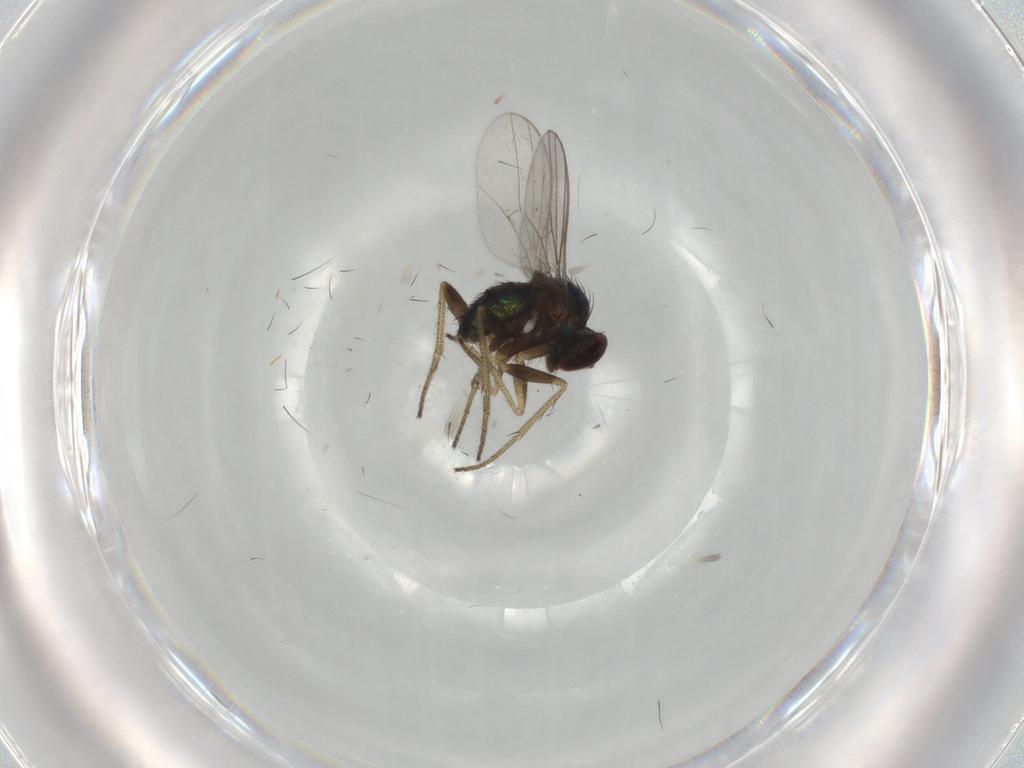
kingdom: Animalia
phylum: Arthropoda
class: Insecta
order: Diptera
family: Dolichopodidae
